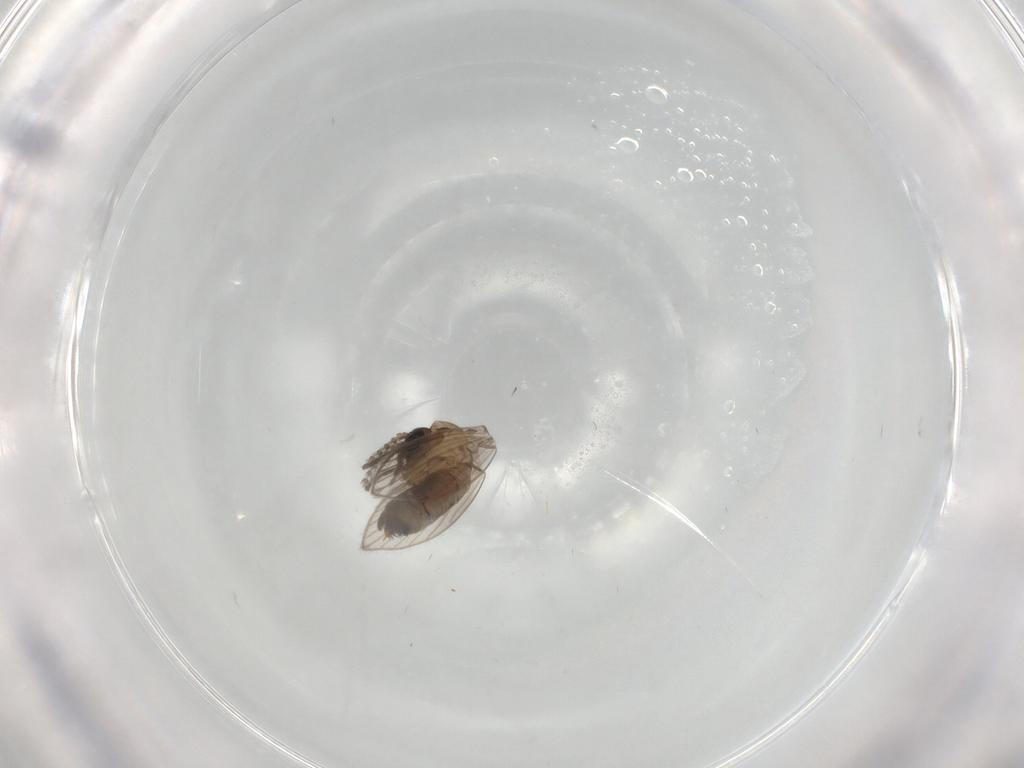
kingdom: Animalia
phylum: Arthropoda
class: Insecta
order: Diptera
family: Psychodidae
